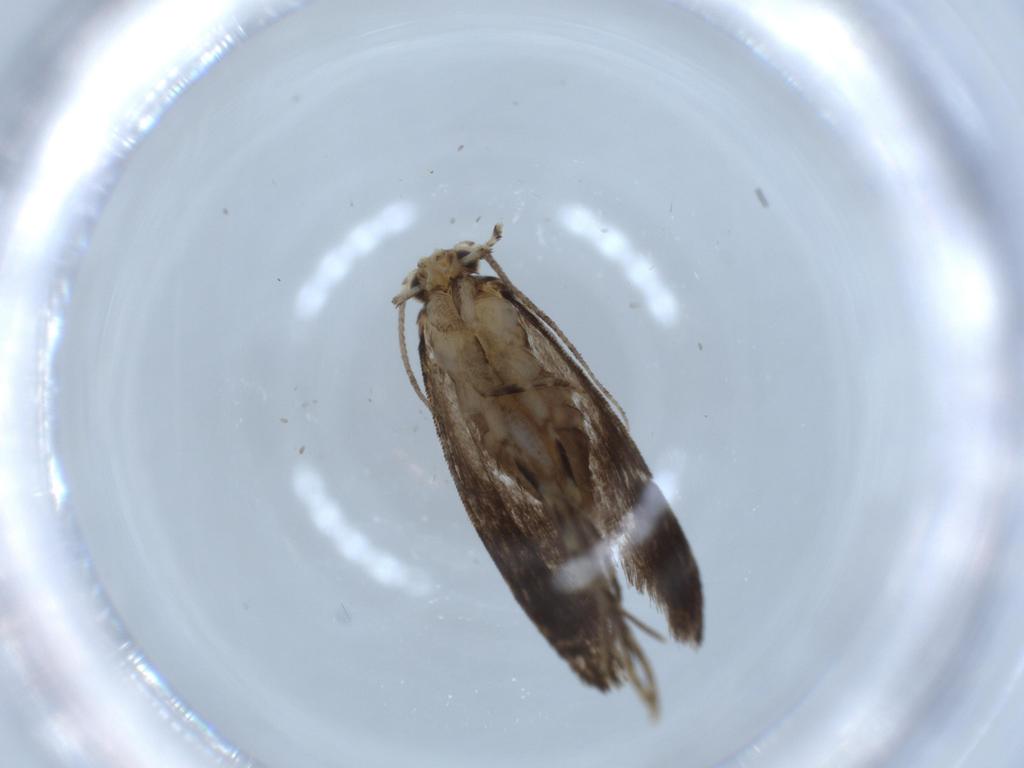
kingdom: Animalia
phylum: Arthropoda
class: Insecta
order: Lepidoptera
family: Tineidae
